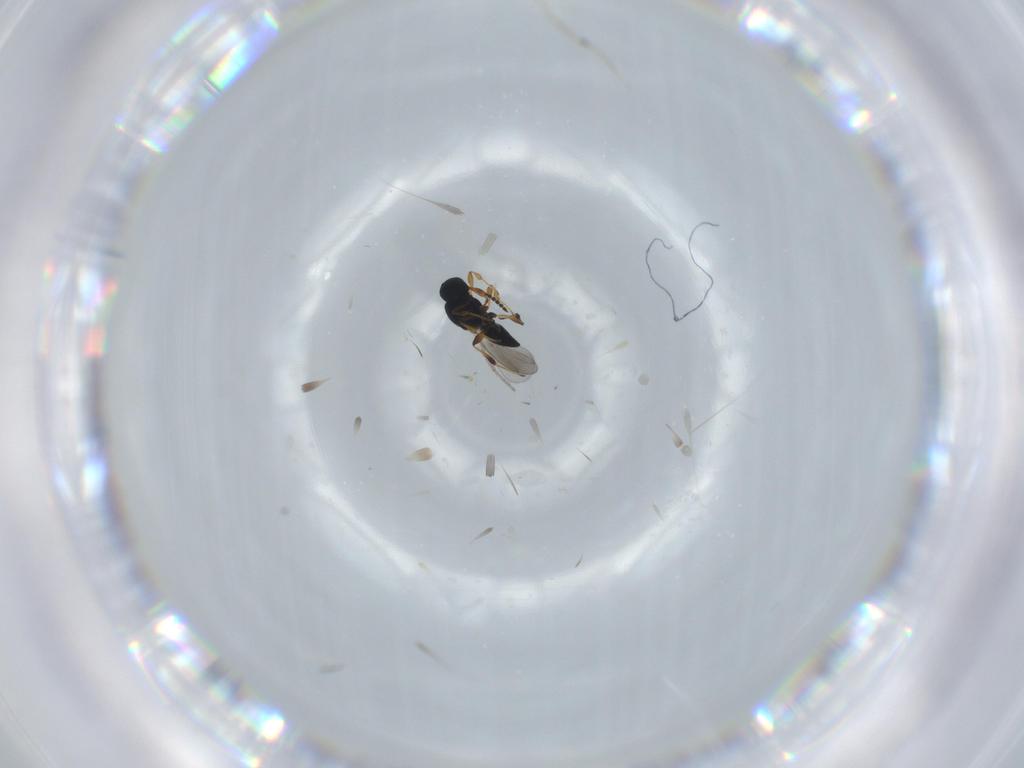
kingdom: Animalia
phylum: Arthropoda
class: Insecta
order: Hymenoptera
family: Platygastridae
